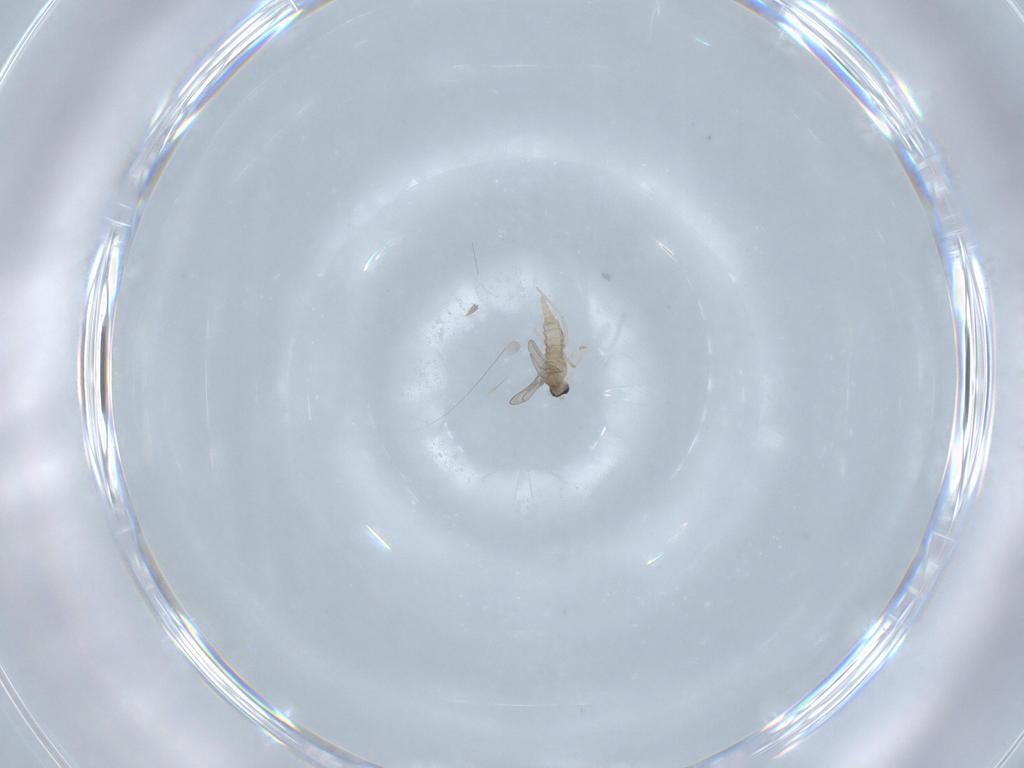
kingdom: Animalia
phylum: Arthropoda
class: Insecta
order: Diptera
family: Cecidomyiidae
